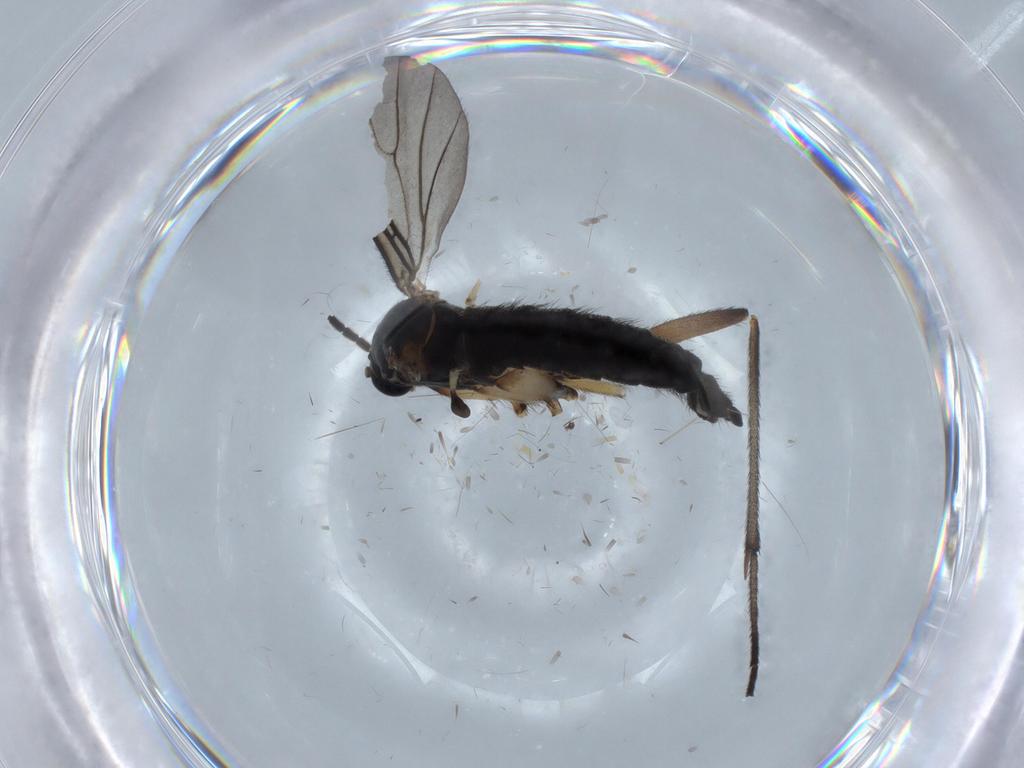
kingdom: Animalia
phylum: Arthropoda
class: Insecta
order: Diptera
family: Sciaridae
